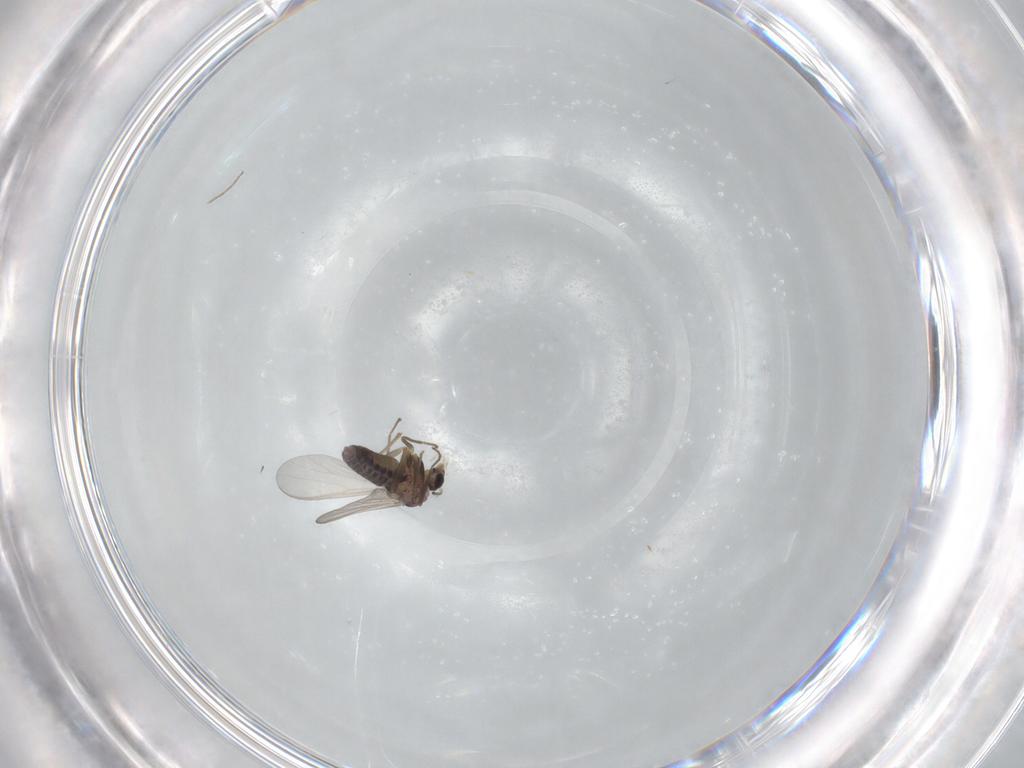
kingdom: Animalia
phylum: Arthropoda
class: Insecta
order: Diptera
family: Chironomidae
